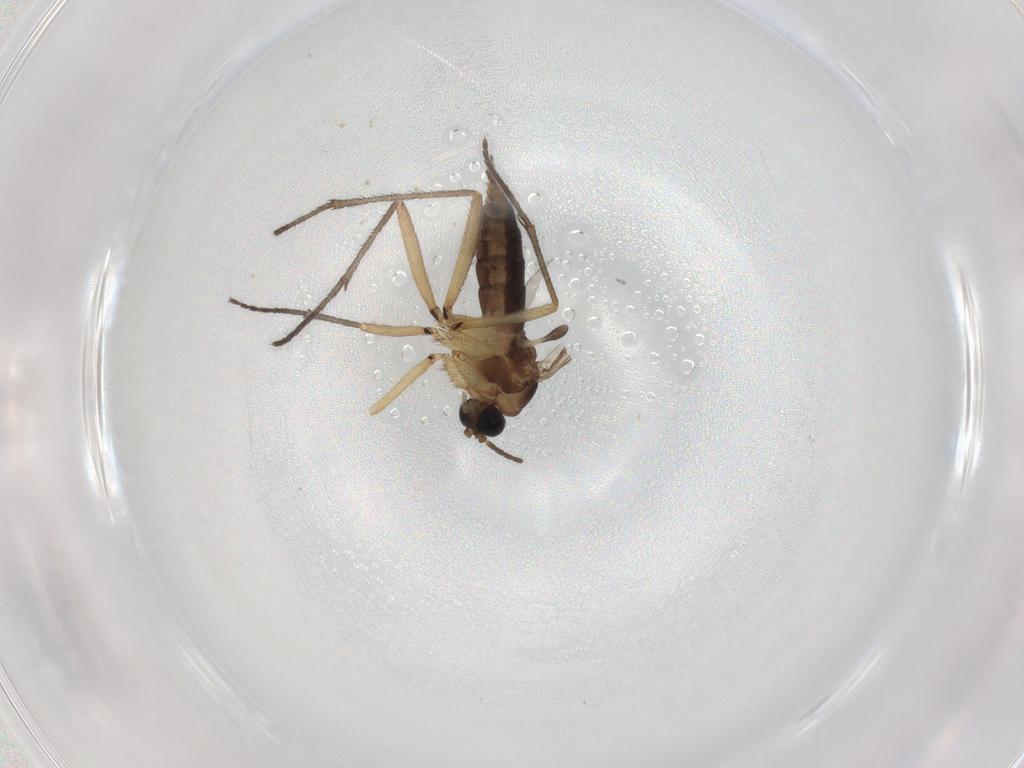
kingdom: Animalia
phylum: Arthropoda
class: Insecta
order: Diptera
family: Sciaridae
